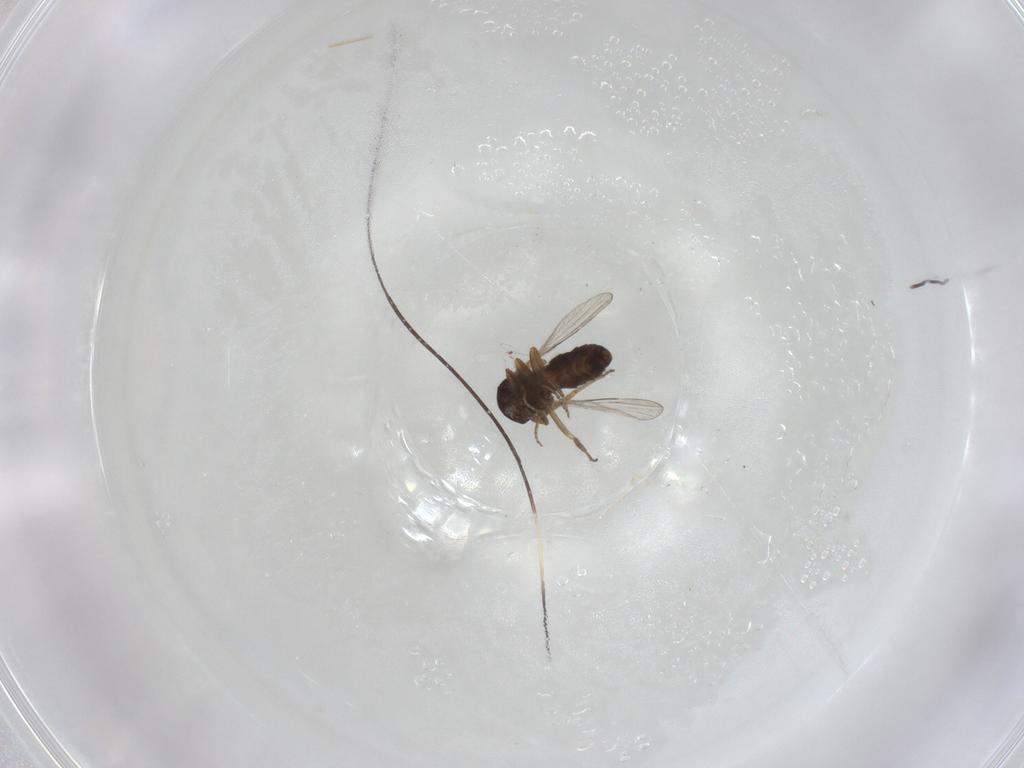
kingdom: Animalia
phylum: Arthropoda
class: Insecta
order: Diptera
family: Ceratopogonidae
